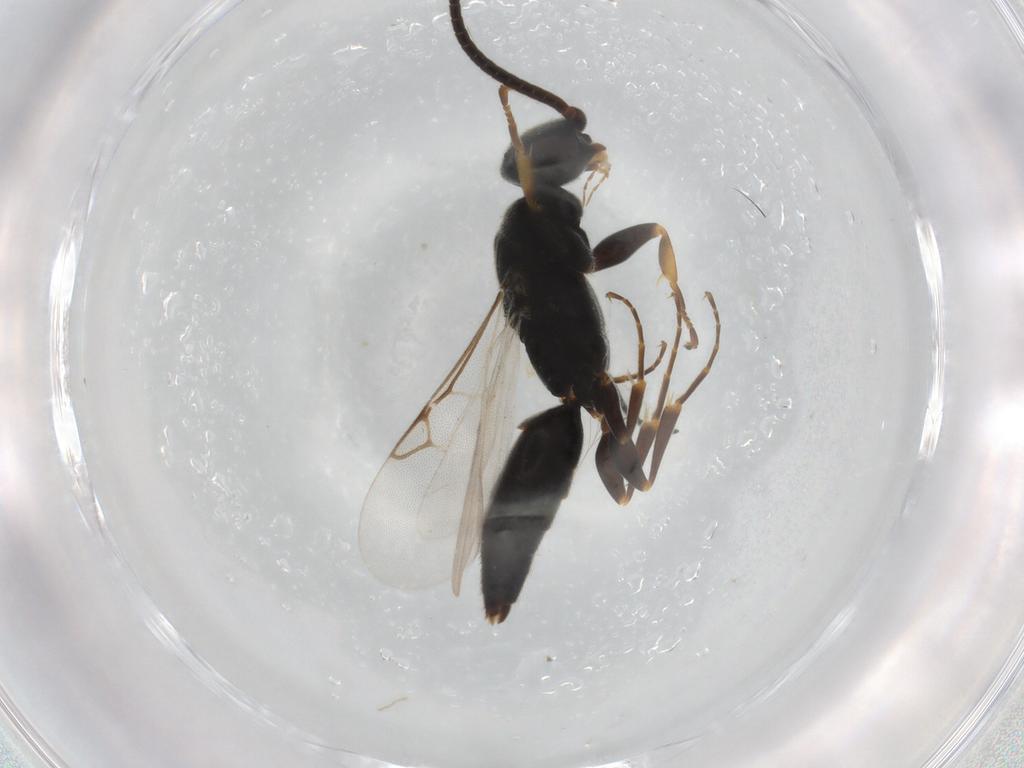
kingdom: Animalia
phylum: Arthropoda
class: Insecta
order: Hymenoptera
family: Sclerogibbidae
